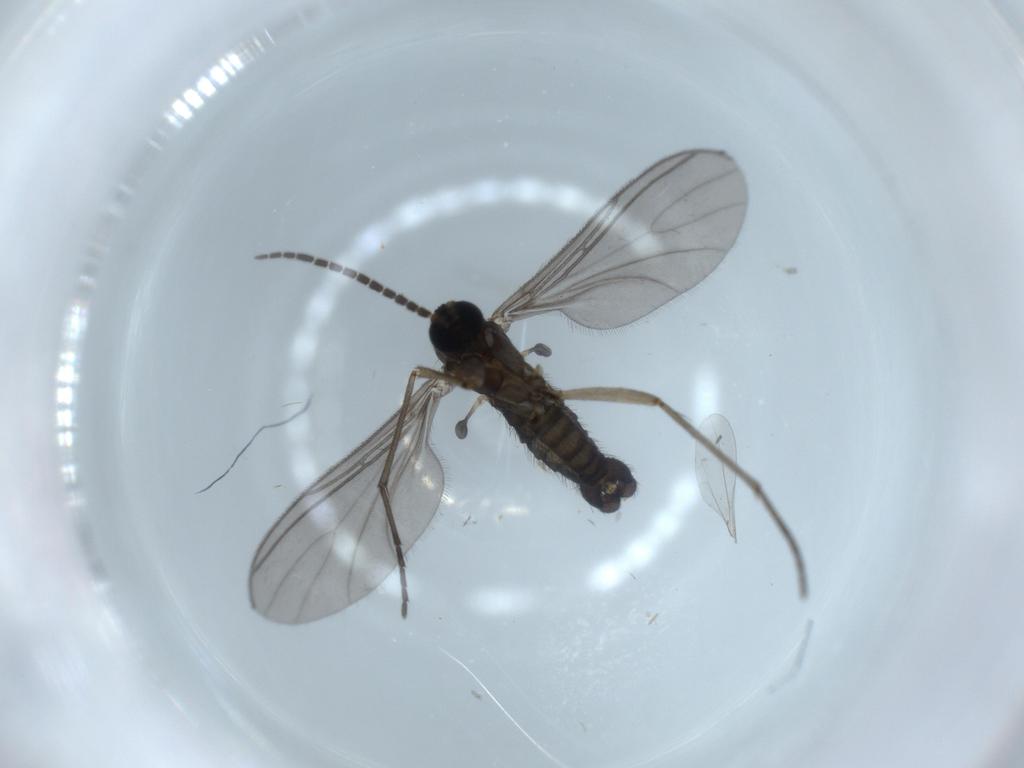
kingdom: Animalia
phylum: Arthropoda
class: Insecta
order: Diptera
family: Sciaridae
